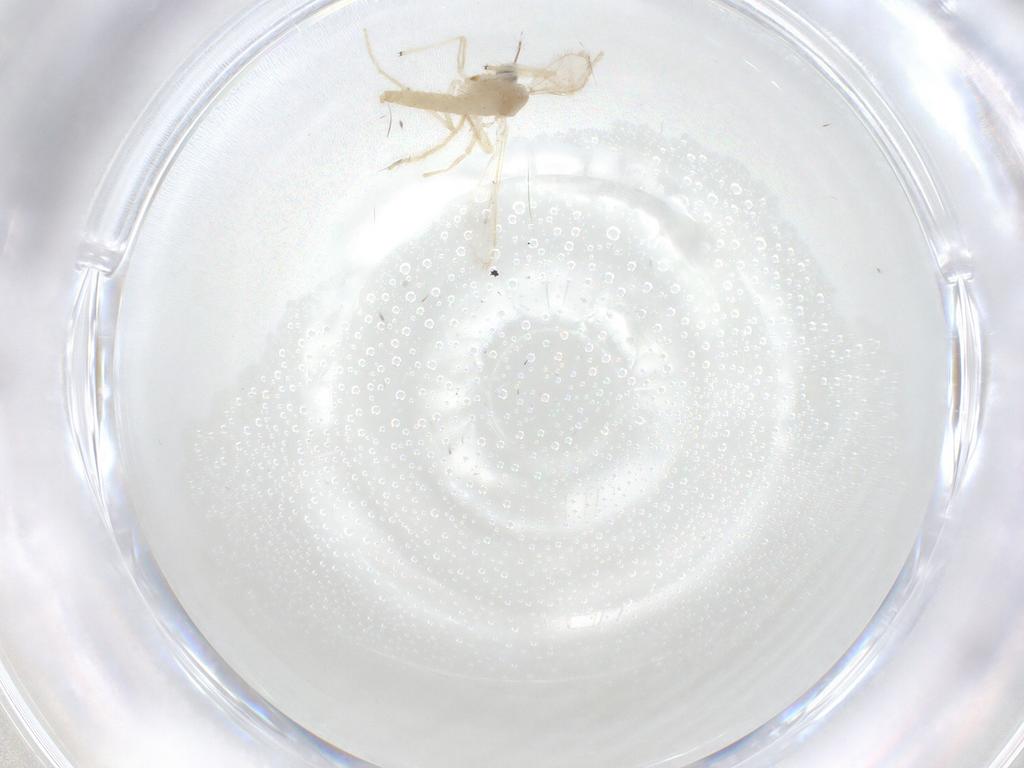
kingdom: Animalia
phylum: Arthropoda
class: Insecta
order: Diptera
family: Chironomidae
